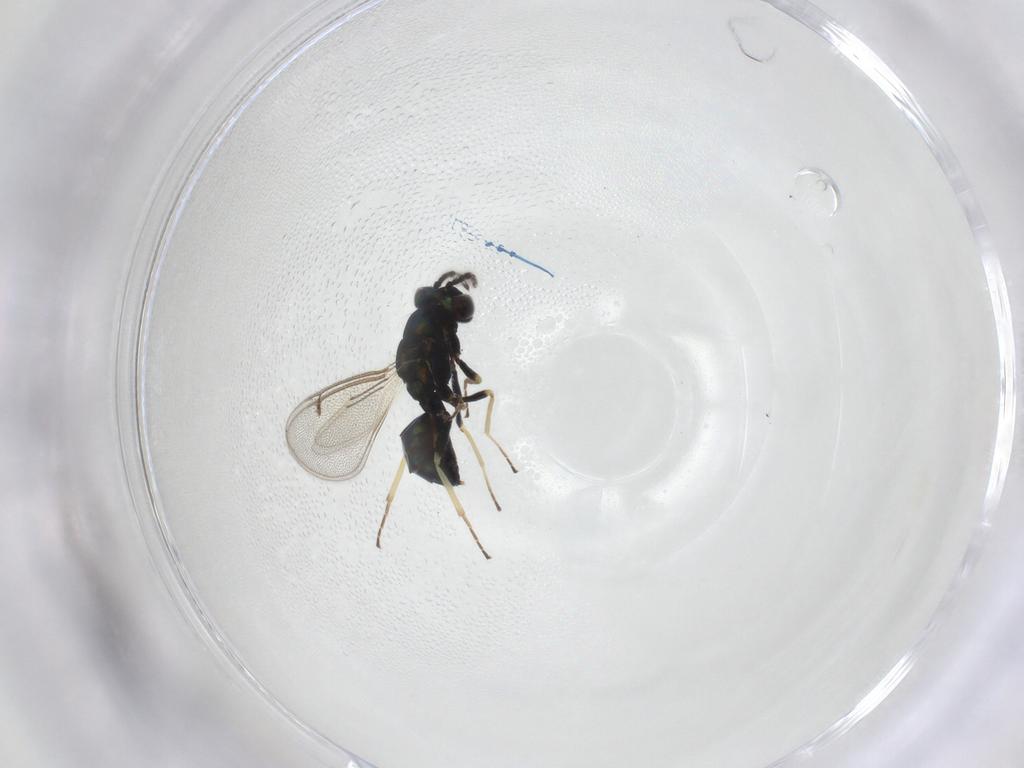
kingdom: Animalia
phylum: Arthropoda
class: Insecta
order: Hymenoptera
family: Eulophidae
